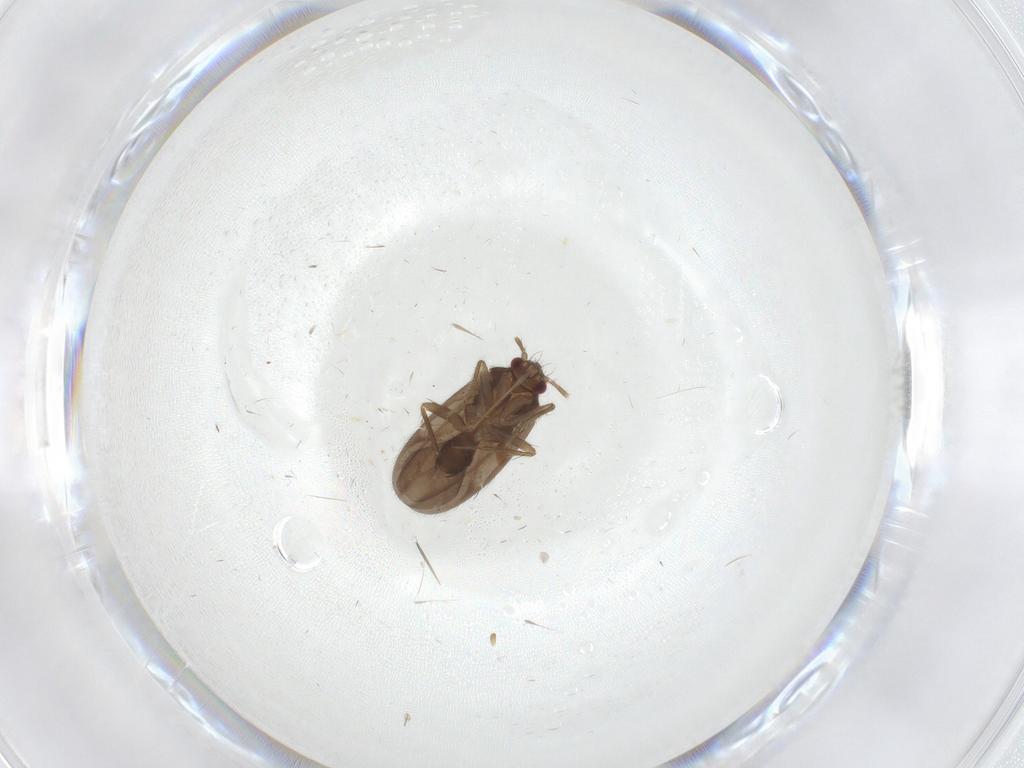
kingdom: Animalia
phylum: Arthropoda
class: Insecta
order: Hemiptera
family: Ceratocombidae
